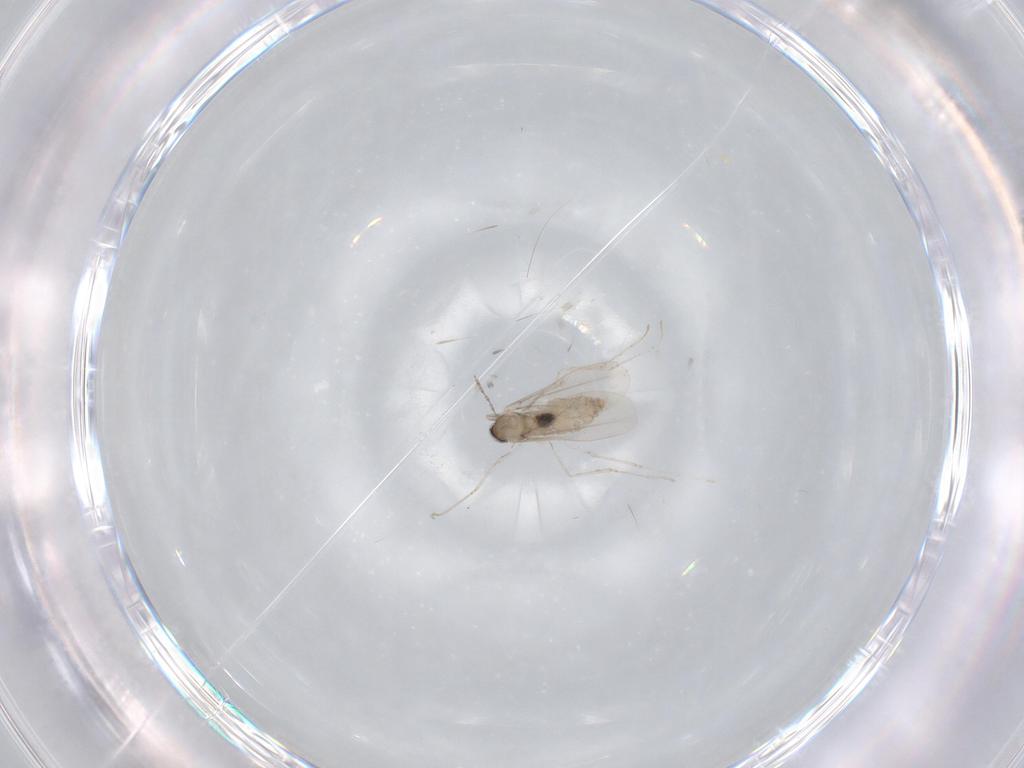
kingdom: Animalia
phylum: Arthropoda
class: Insecta
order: Diptera
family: Cecidomyiidae
